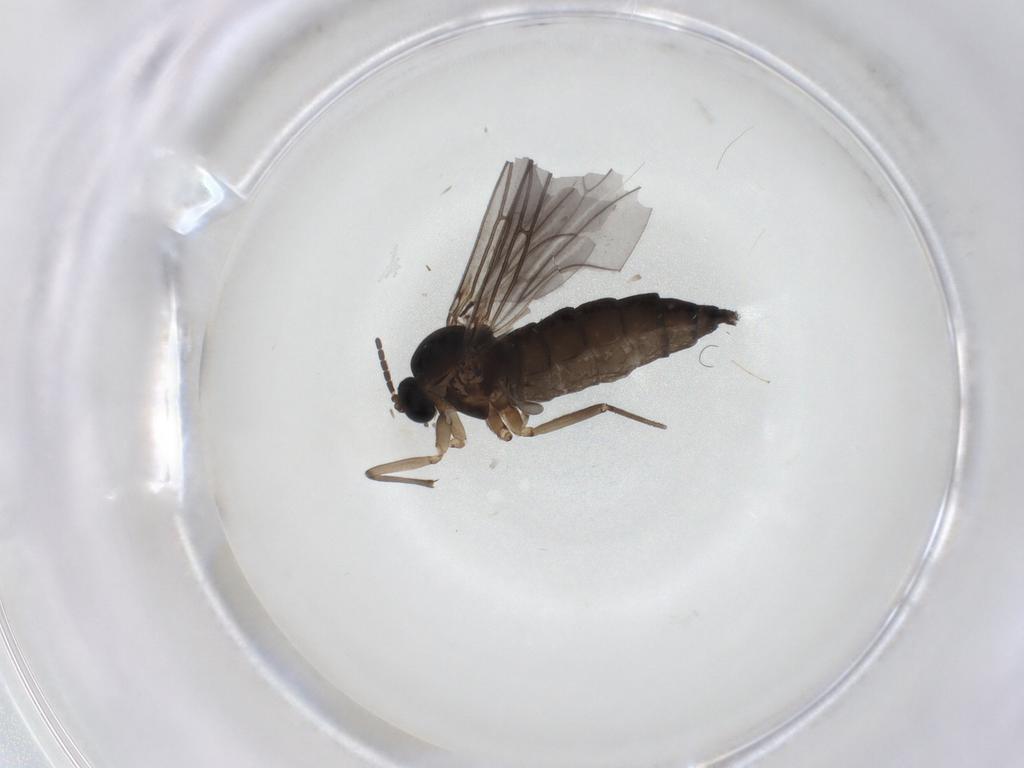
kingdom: Animalia
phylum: Arthropoda
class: Insecta
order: Diptera
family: Sciaridae
